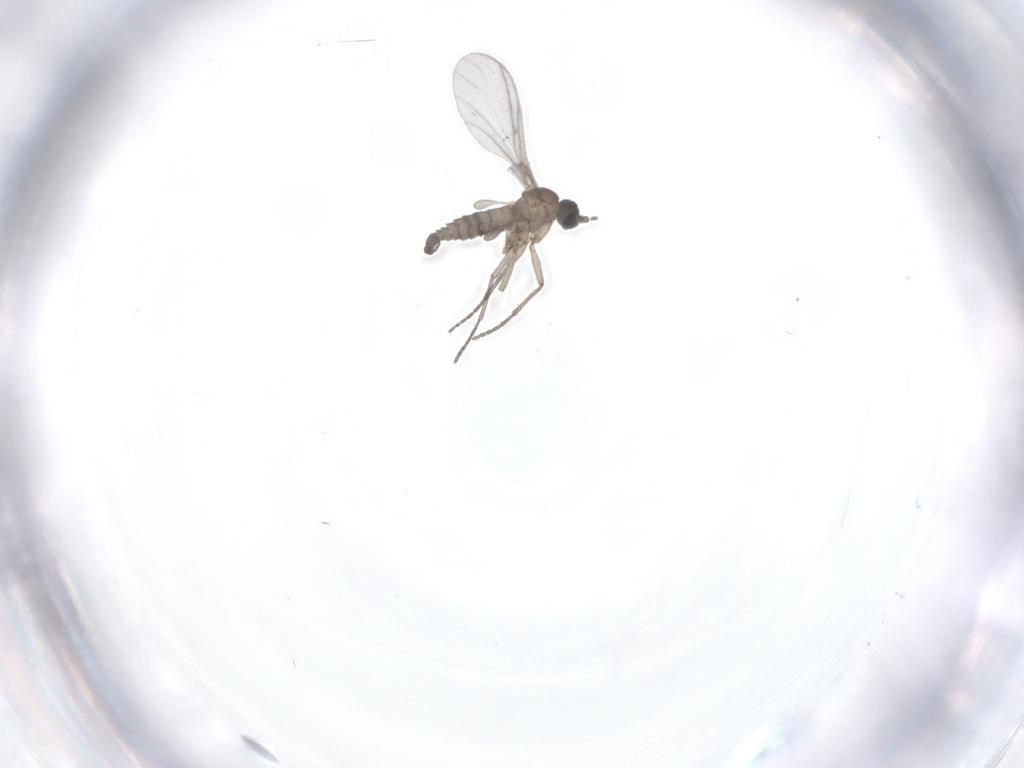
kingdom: Animalia
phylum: Arthropoda
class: Insecta
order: Diptera
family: Sciaridae
